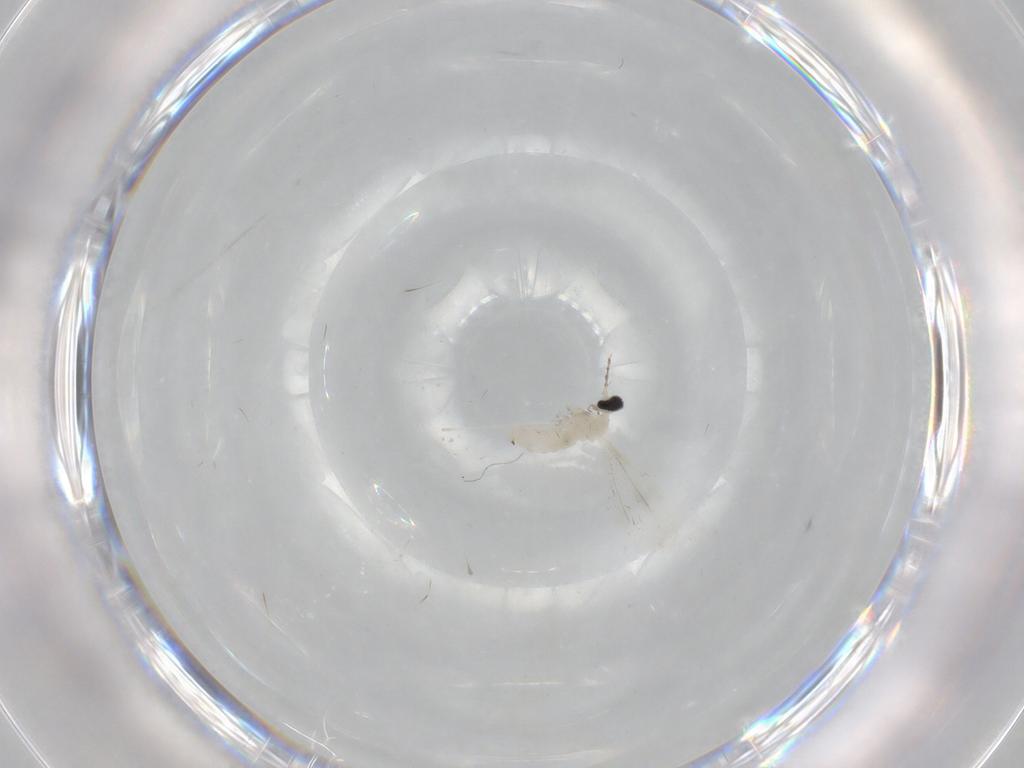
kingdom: Animalia
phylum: Arthropoda
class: Insecta
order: Diptera
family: Cecidomyiidae
